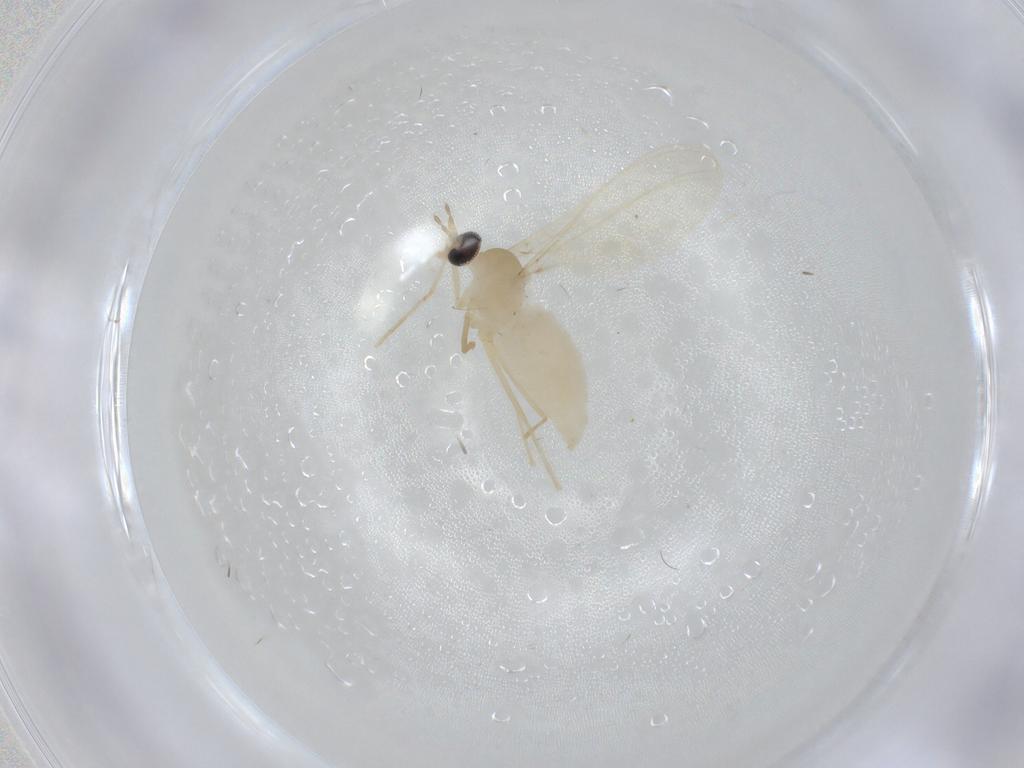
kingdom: Animalia
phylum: Arthropoda
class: Insecta
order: Diptera
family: Cecidomyiidae
